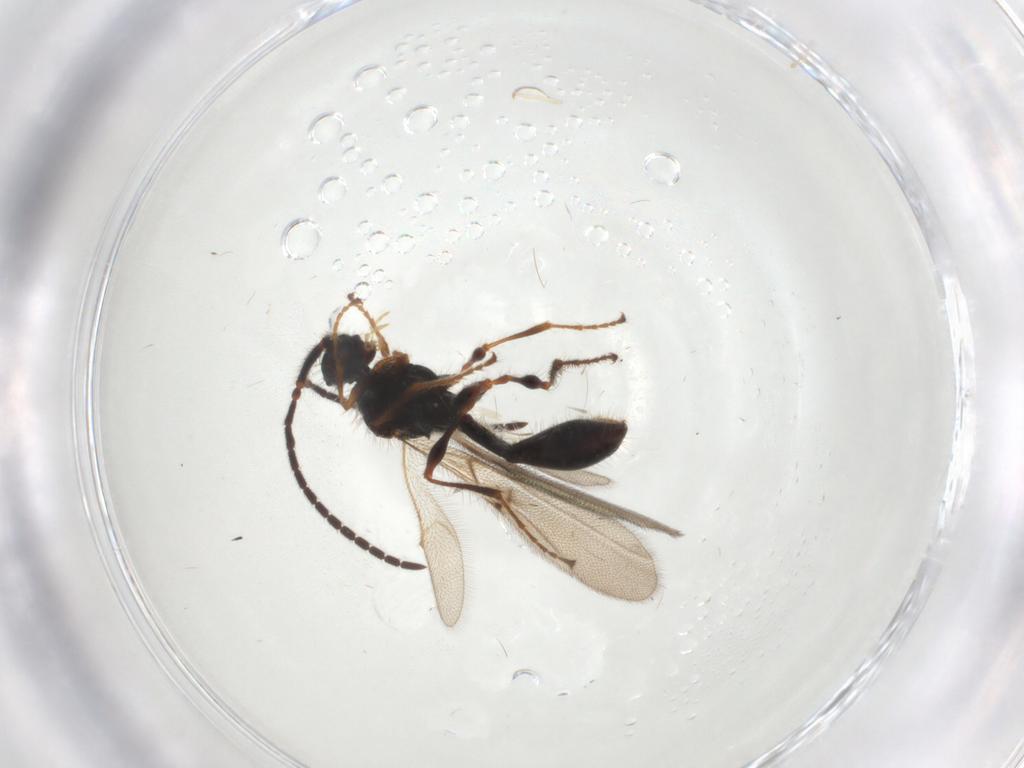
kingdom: Animalia
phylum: Arthropoda
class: Insecta
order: Hymenoptera
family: Diapriidae
